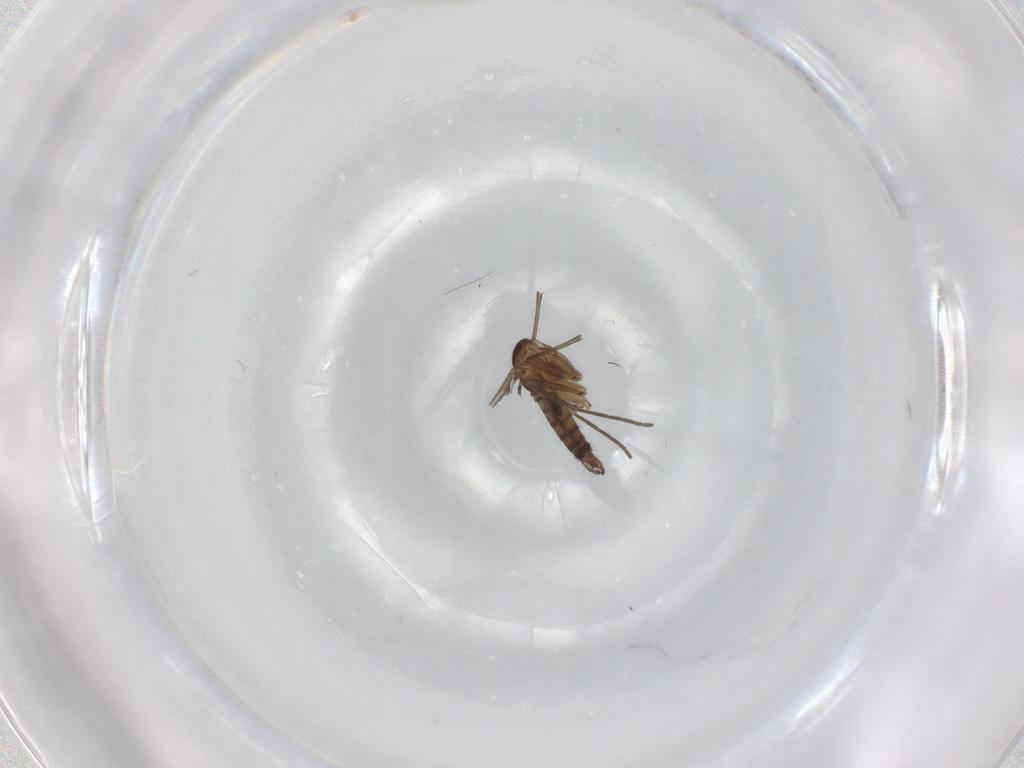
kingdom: Animalia
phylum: Arthropoda
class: Insecta
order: Diptera
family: Sciaridae
